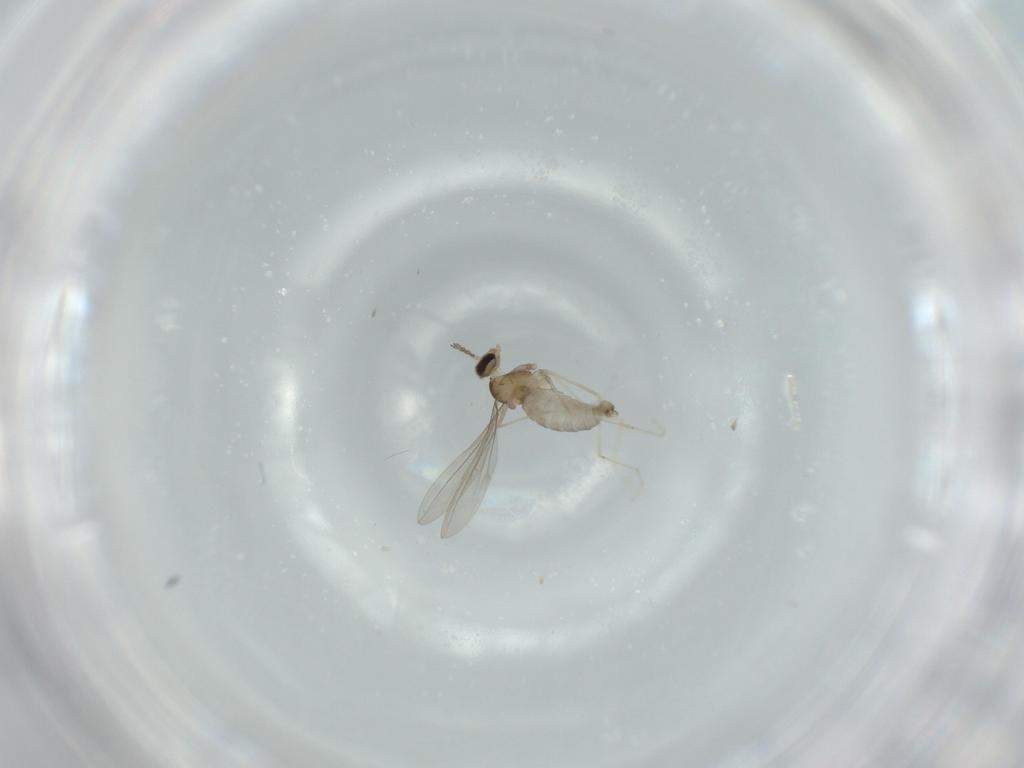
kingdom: Animalia
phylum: Arthropoda
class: Insecta
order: Diptera
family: Cecidomyiidae
